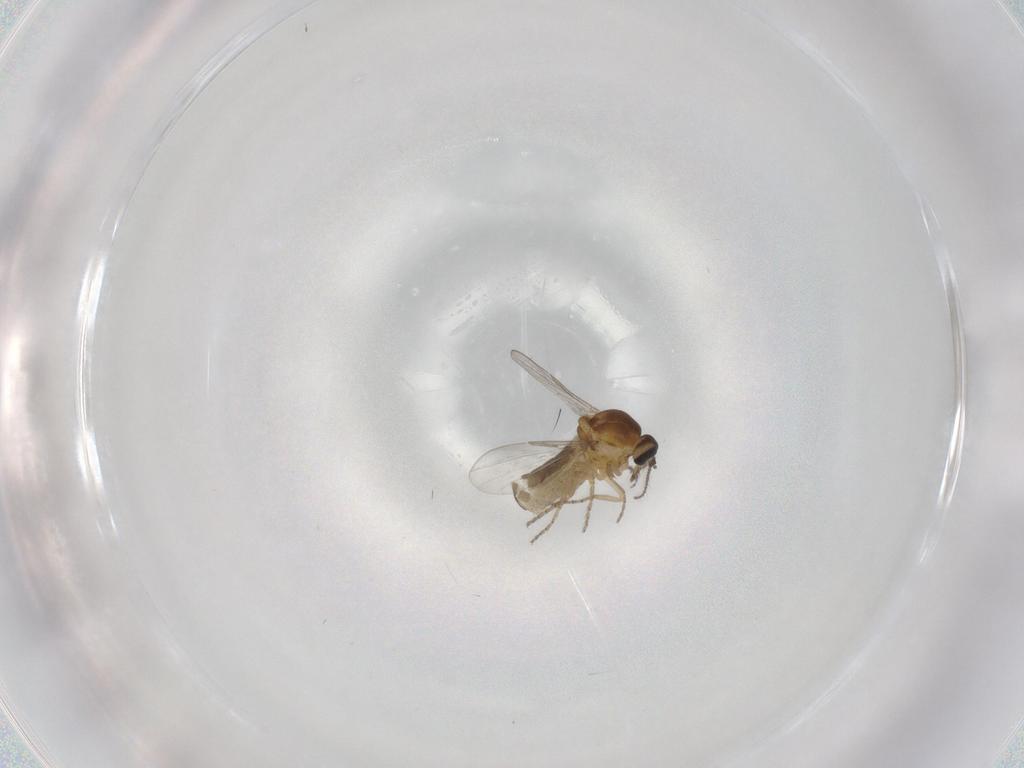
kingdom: Animalia
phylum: Arthropoda
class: Insecta
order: Diptera
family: Ceratopogonidae
